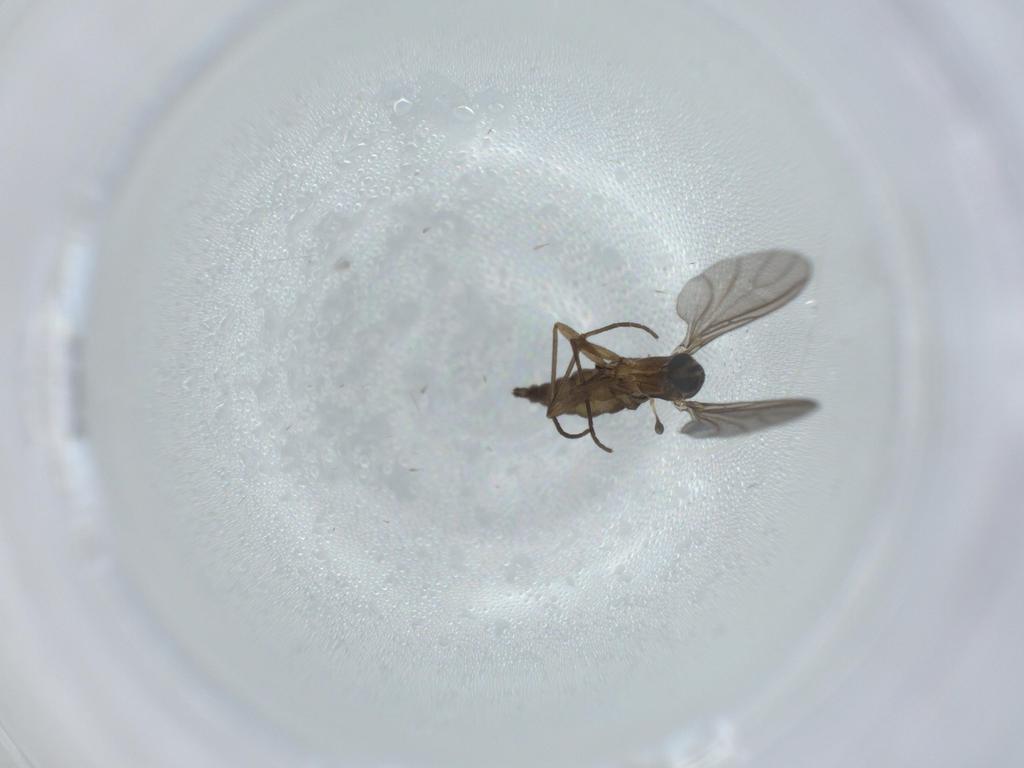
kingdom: Animalia
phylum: Arthropoda
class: Insecta
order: Diptera
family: Sciaridae
